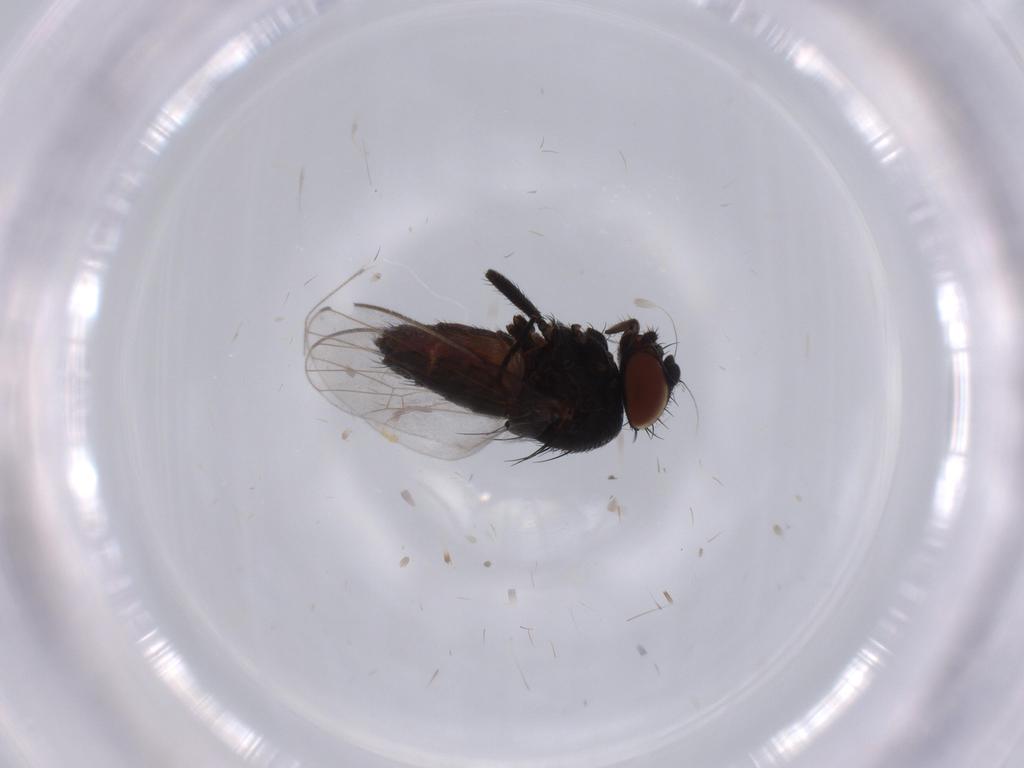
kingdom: Animalia
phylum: Arthropoda
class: Insecta
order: Diptera
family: Milichiidae
